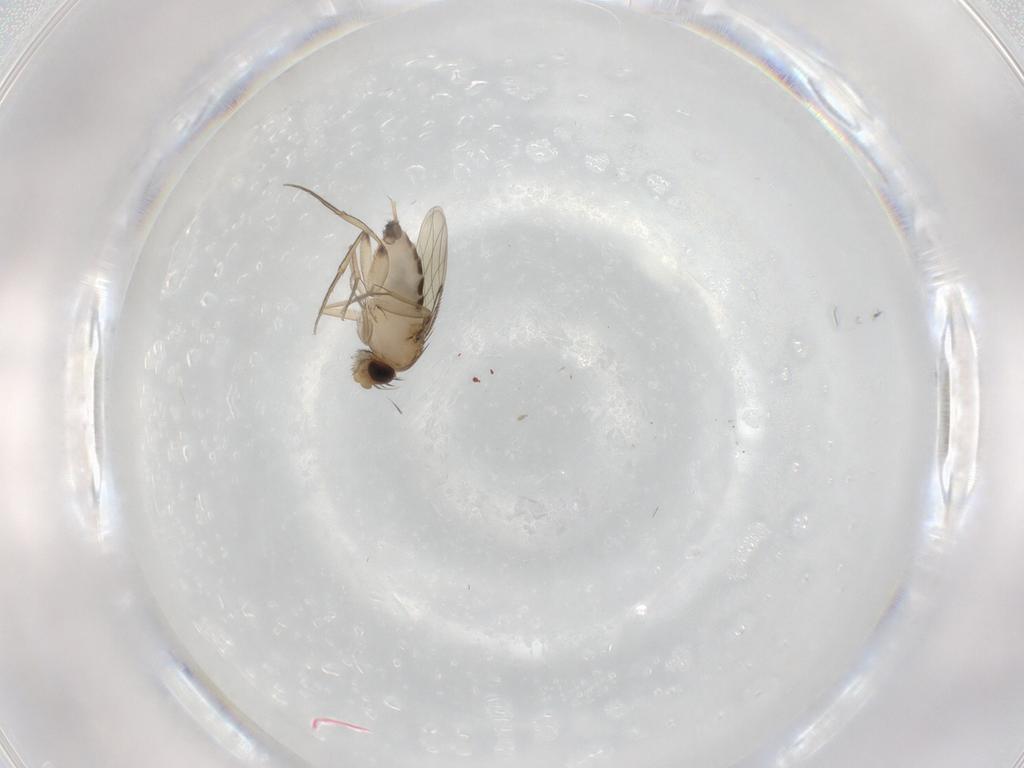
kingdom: Animalia
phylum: Arthropoda
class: Insecta
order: Diptera
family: Phoridae
